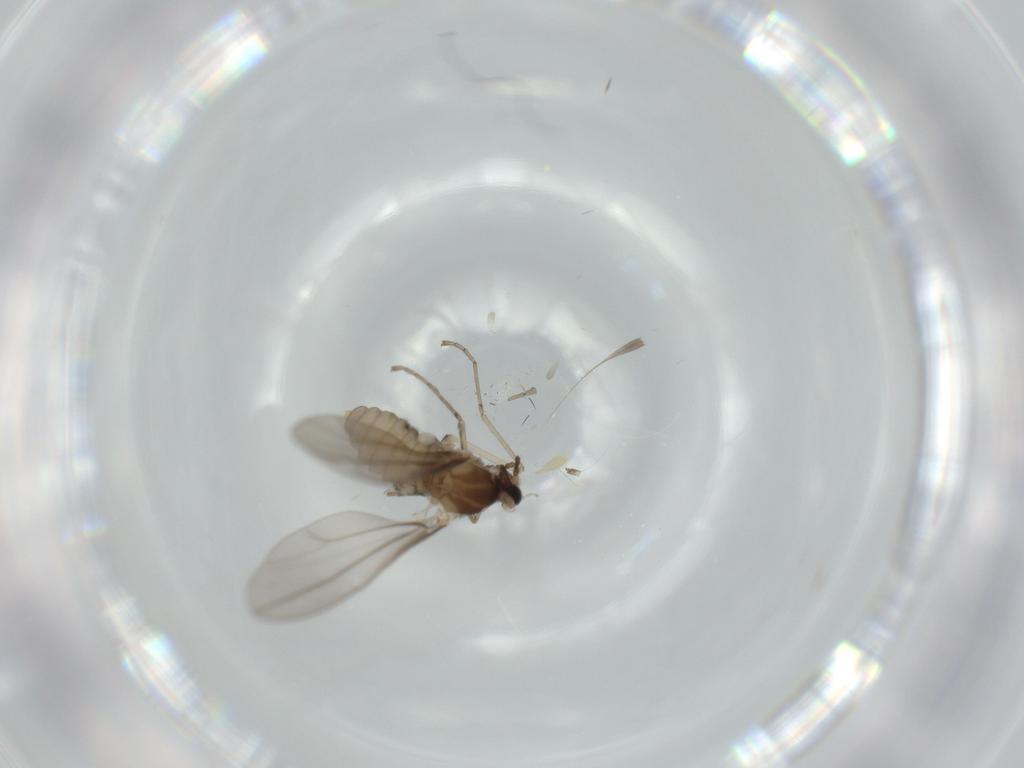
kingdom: Animalia
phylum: Arthropoda
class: Insecta
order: Diptera
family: Cecidomyiidae
